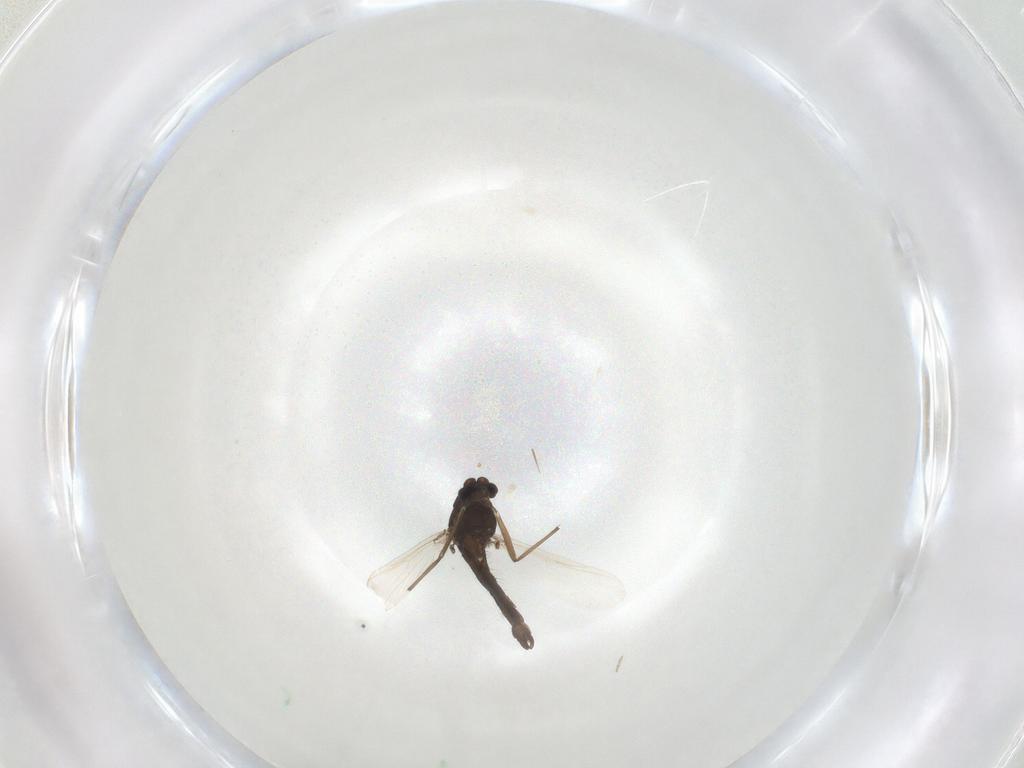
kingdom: Animalia
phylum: Arthropoda
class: Insecta
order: Diptera
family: Chironomidae
